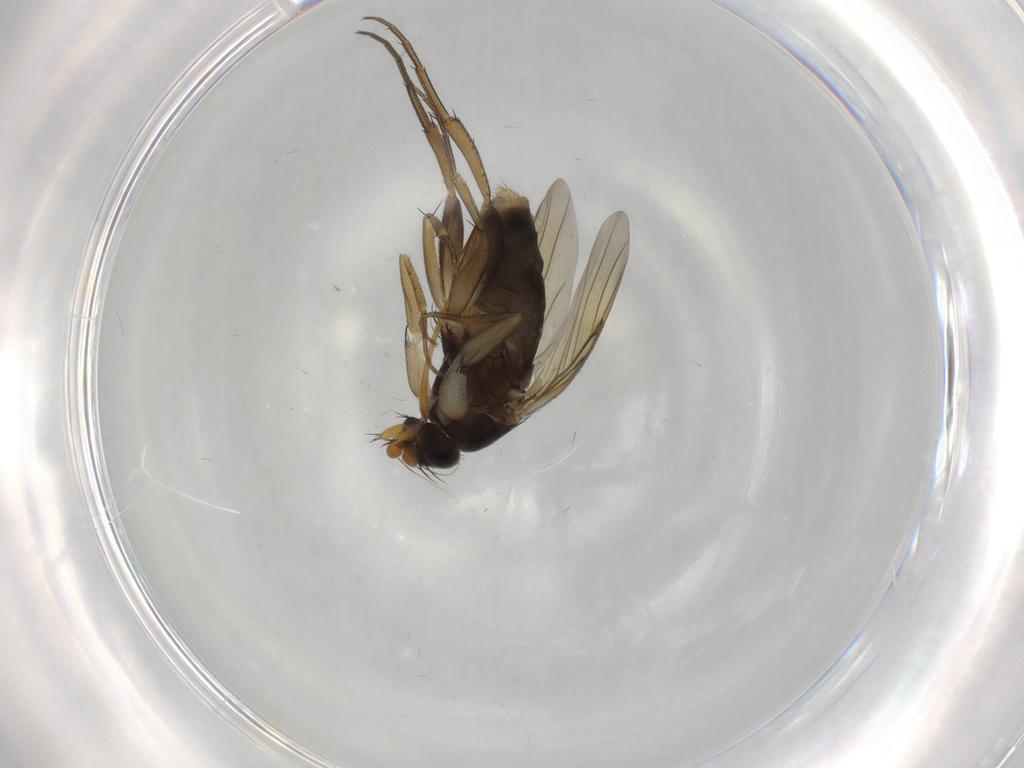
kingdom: Animalia
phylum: Arthropoda
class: Insecta
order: Diptera
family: Phoridae
